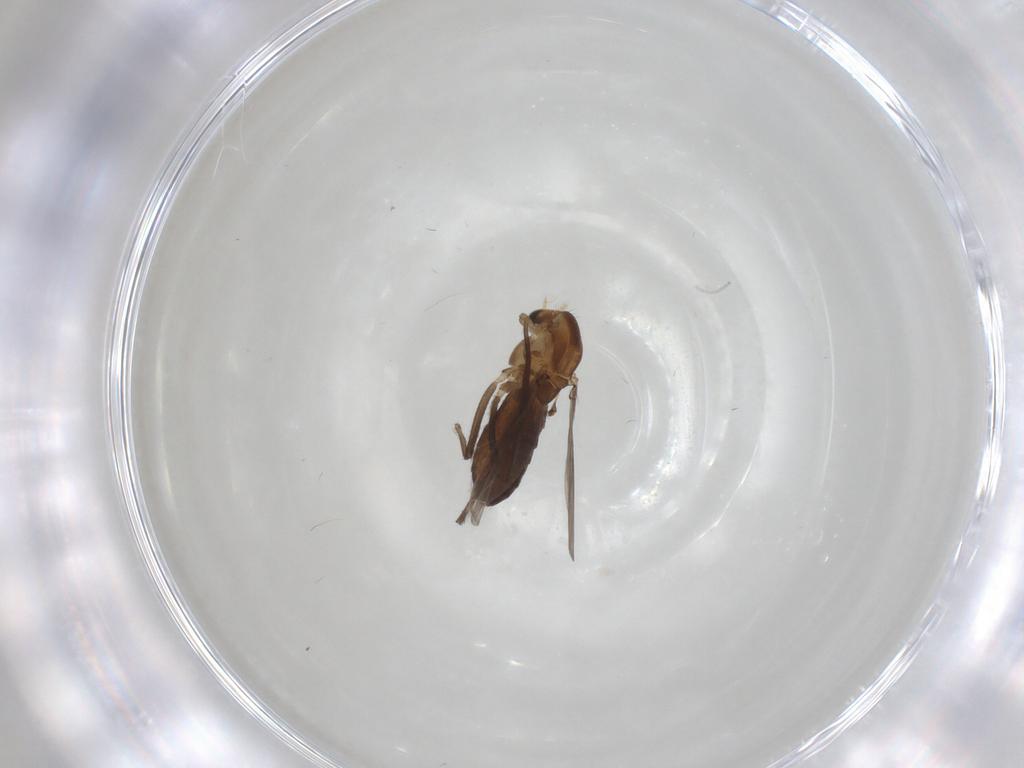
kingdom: Animalia
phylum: Arthropoda
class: Insecta
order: Diptera
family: Chironomidae
